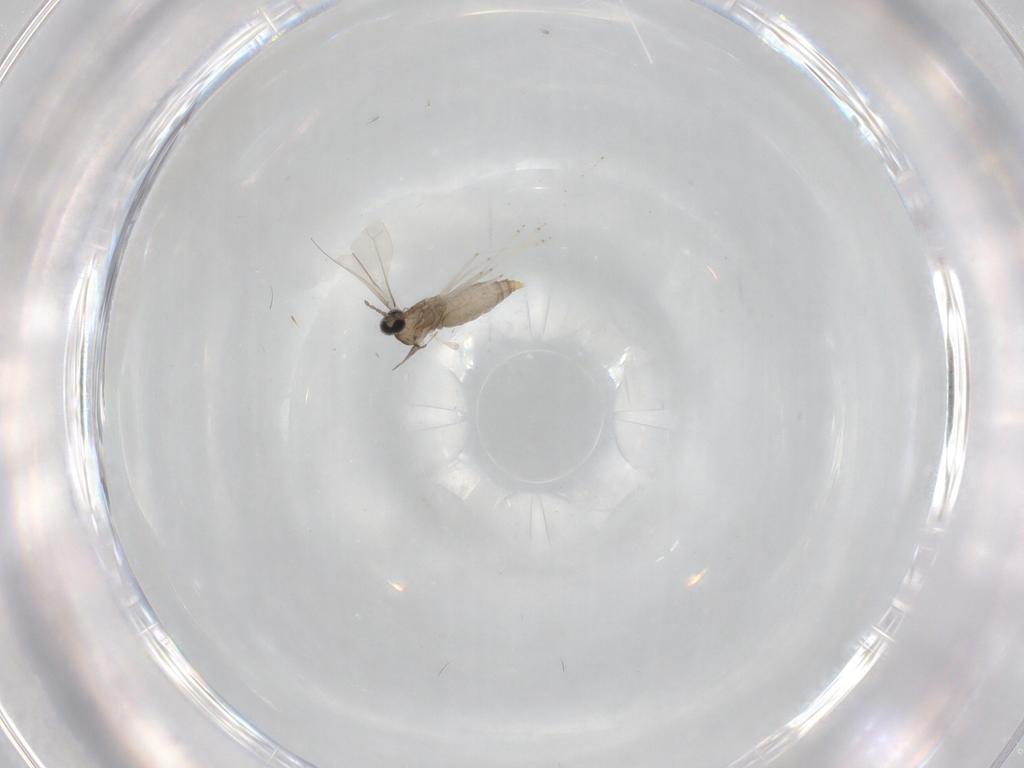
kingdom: Animalia
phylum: Arthropoda
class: Insecta
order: Diptera
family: Cecidomyiidae
